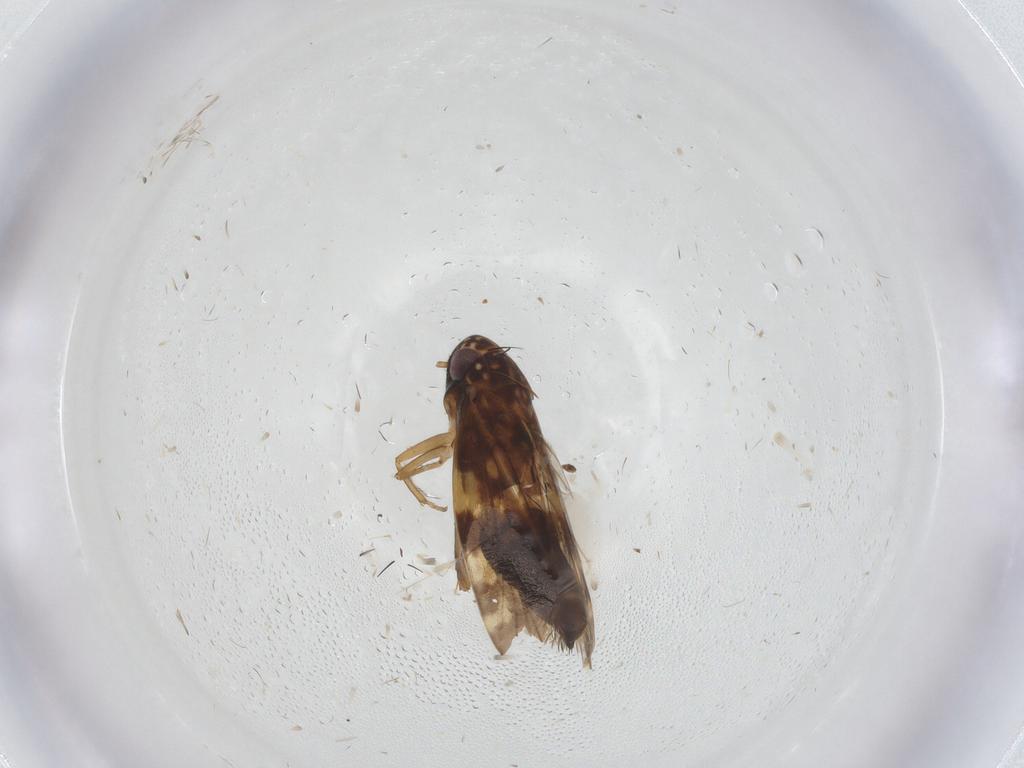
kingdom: Animalia
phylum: Arthropoda
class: Insecta
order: Hemiptera
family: Cicadellidae
